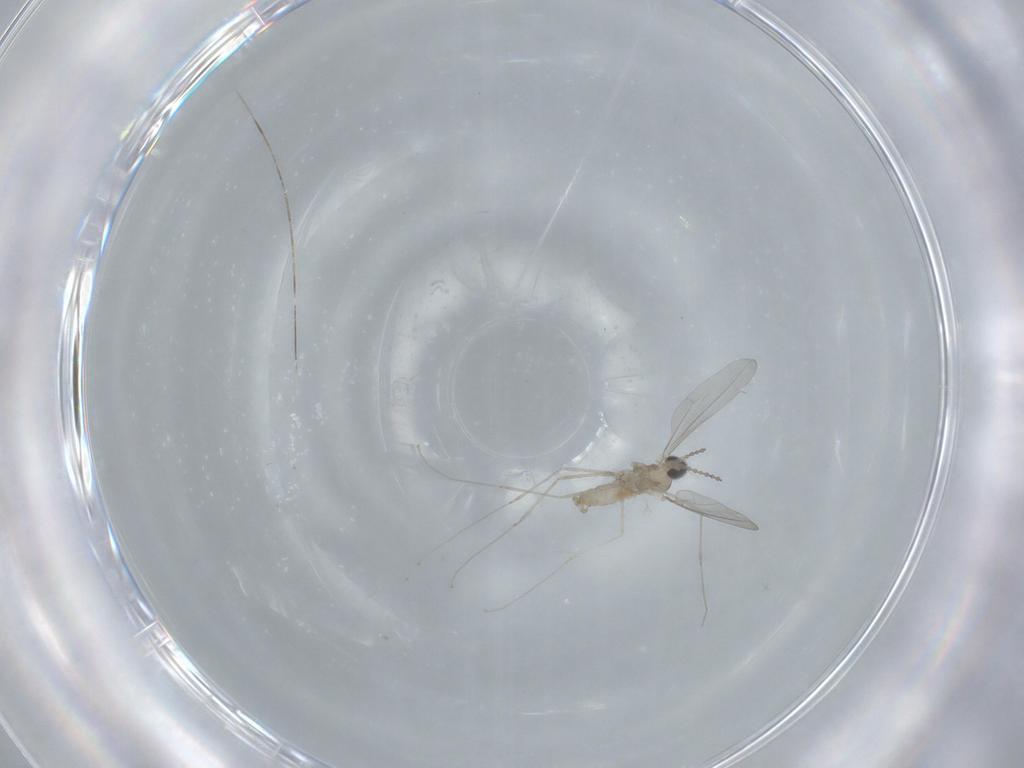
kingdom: Animalia
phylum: Arthropoda
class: Insecta
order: Diptera
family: Cecidomyiidae
